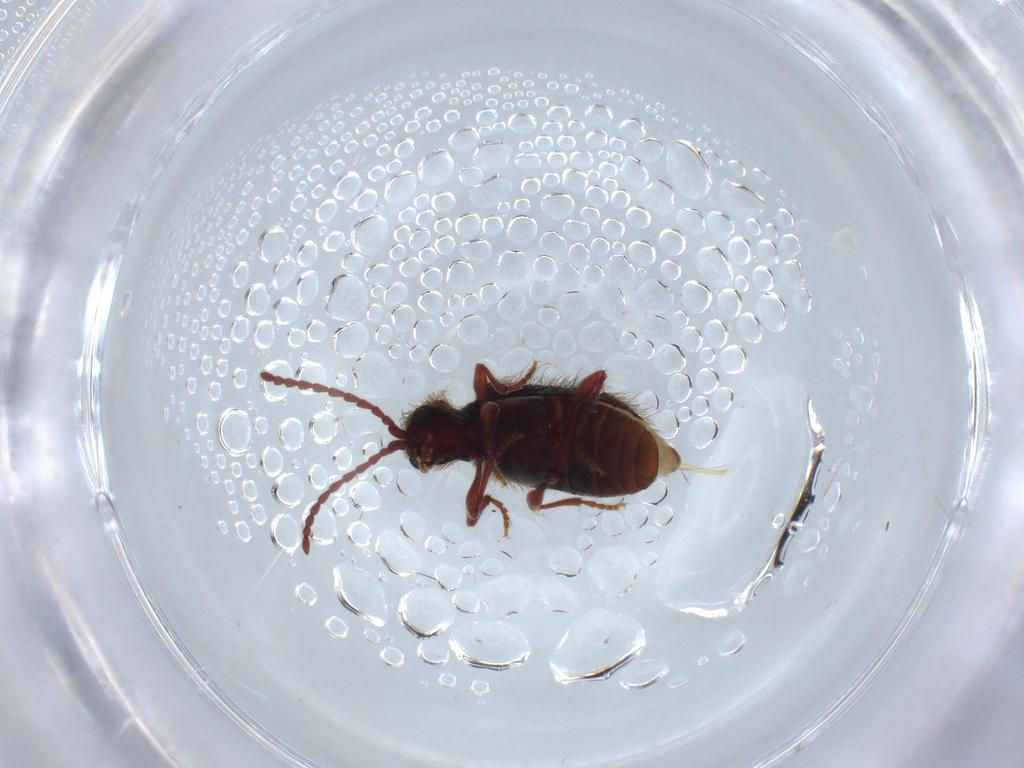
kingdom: Animalia
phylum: Arthropoda
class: Insecta
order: Coleoptera
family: Ptinidae
